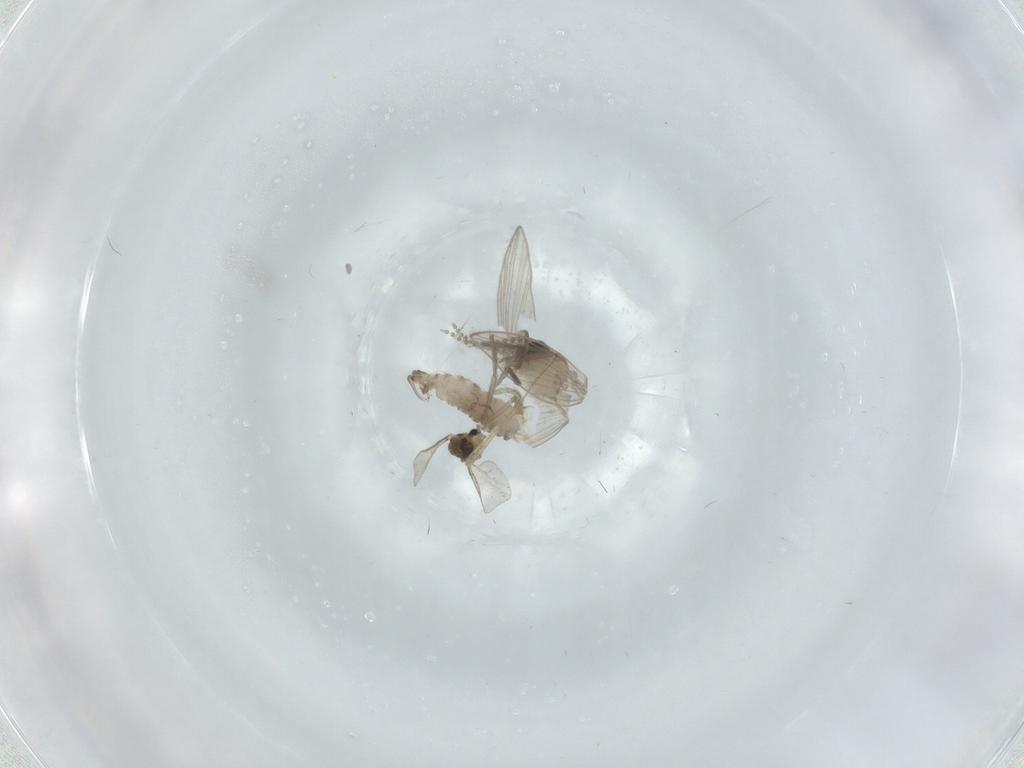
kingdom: Animalia
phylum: Arthropoda
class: Insecta
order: Diptera
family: Psychodidae
